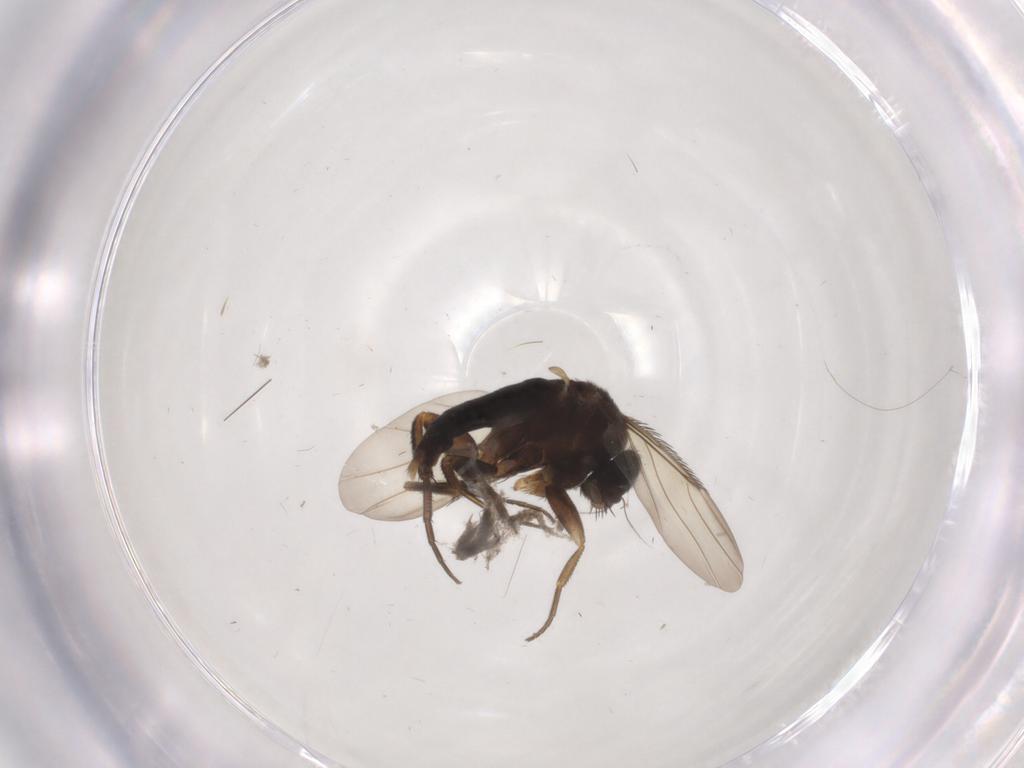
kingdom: Animalia
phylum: Arthropoda
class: Insecta
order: Diptera
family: Phoridae
